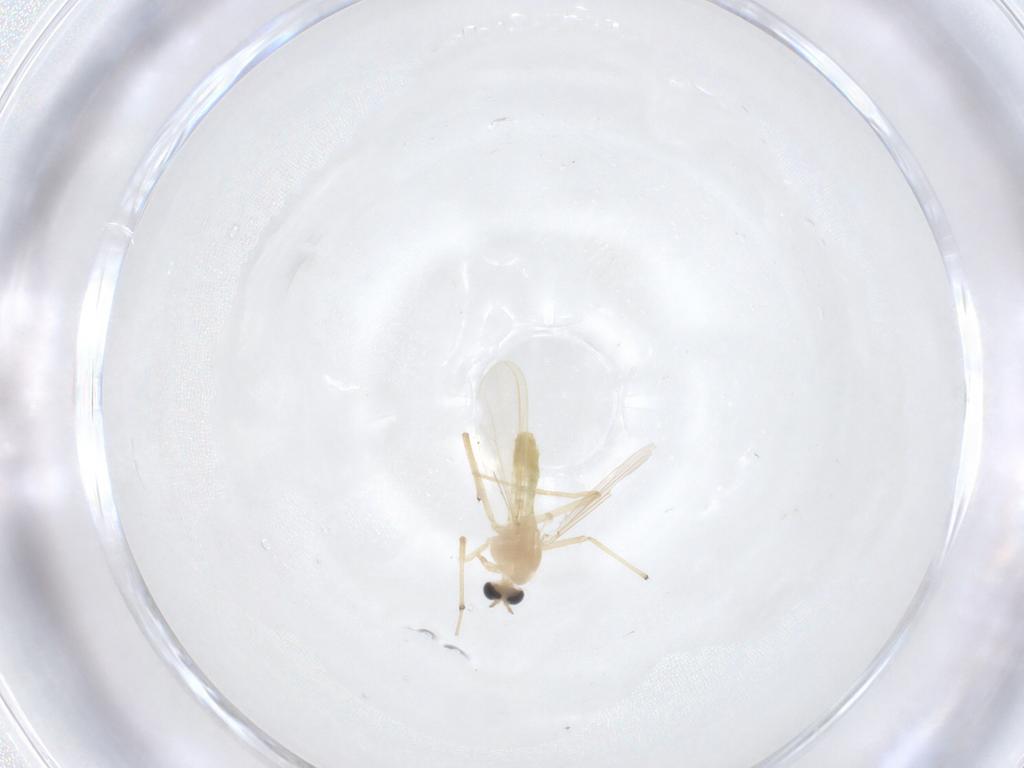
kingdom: Animalia
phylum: Arthropoda
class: Insecta
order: Diptera
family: Chironomidae
